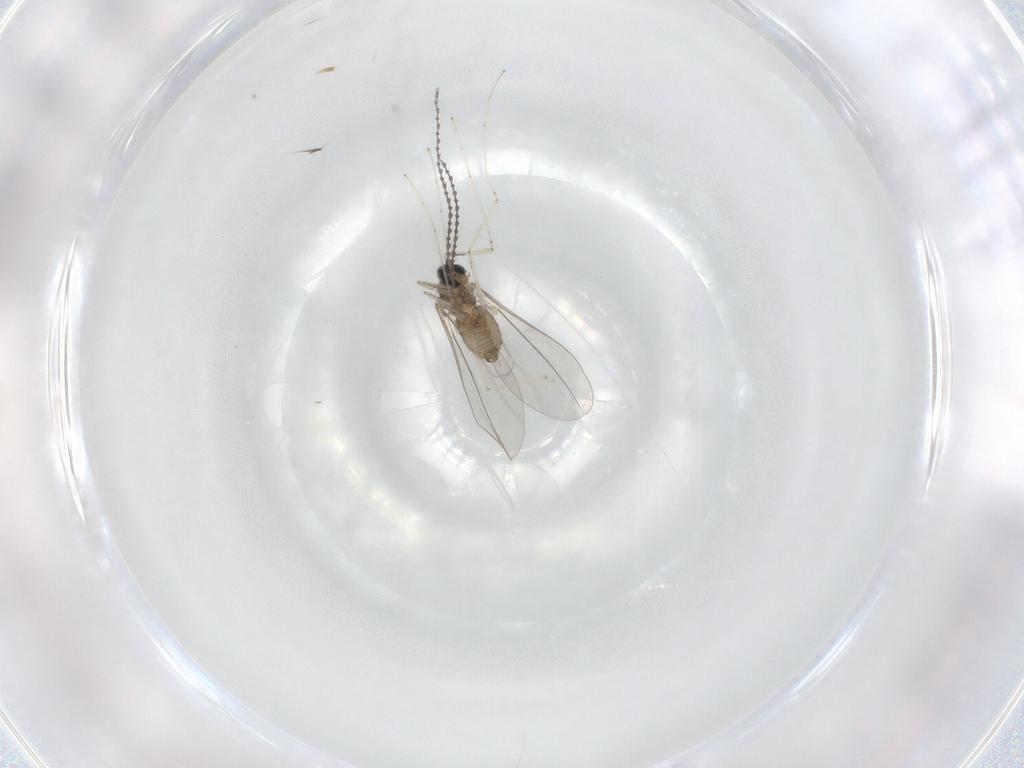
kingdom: Animalia
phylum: Arthropoda
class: Insecta
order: Diptera
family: Cecidomyiidae
